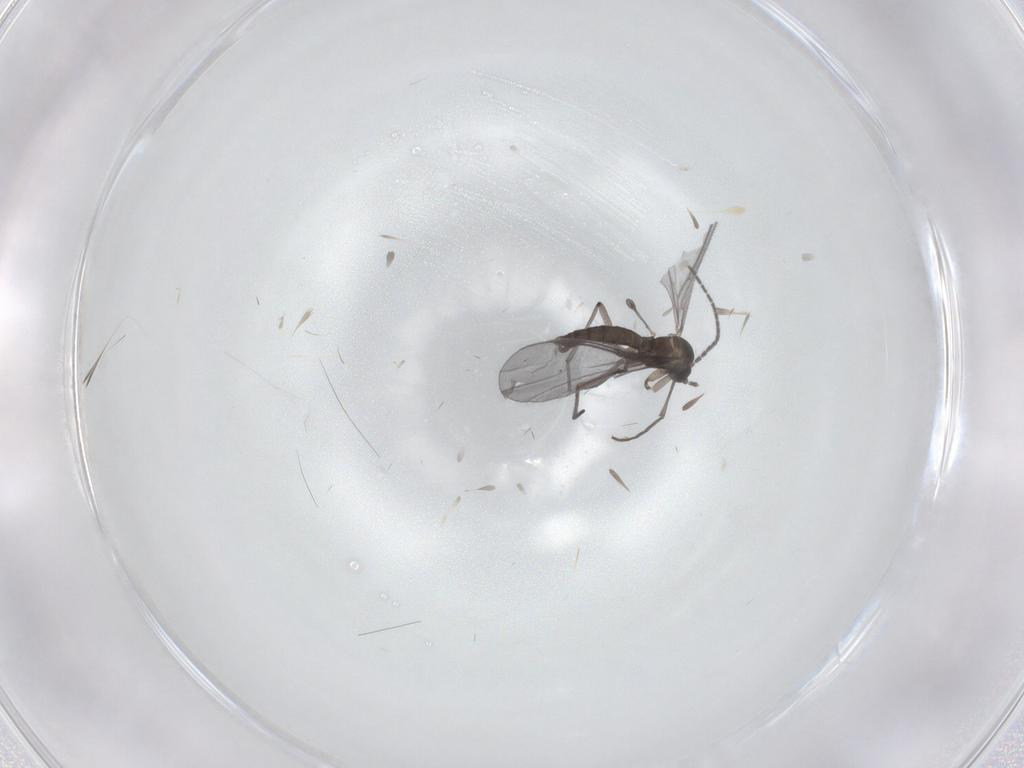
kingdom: Animalia
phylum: Arthropoda
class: Insecta
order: Diptera
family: Sciaridae
